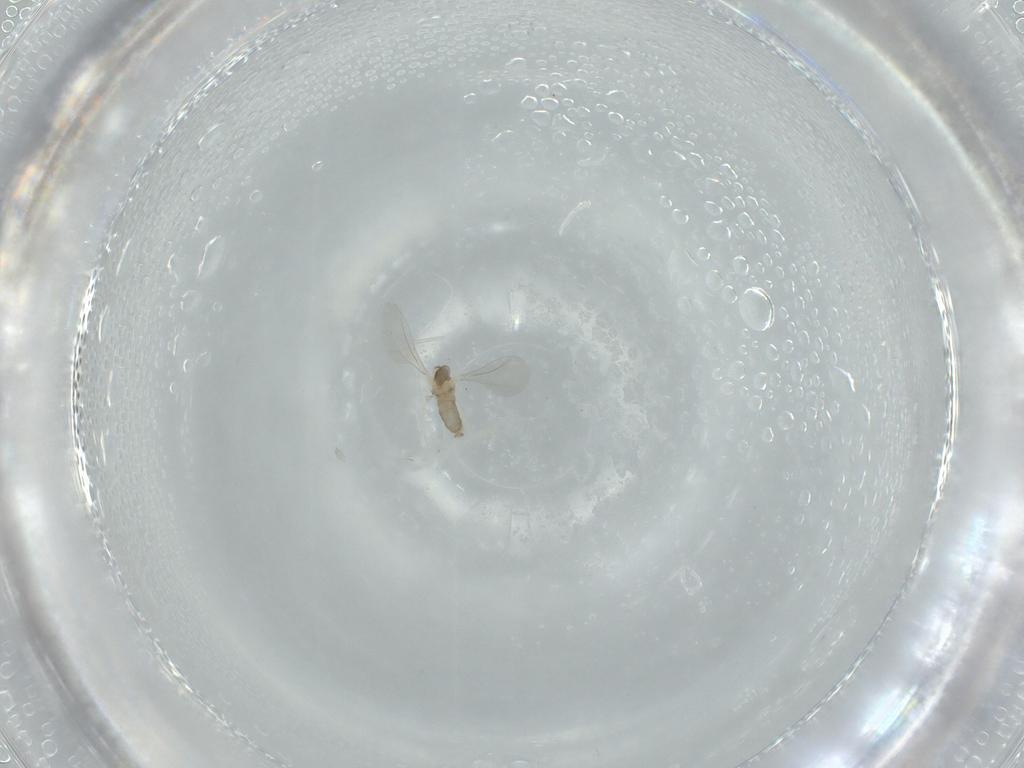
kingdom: Animalia
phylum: Arthropoda
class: Insecta
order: Diptera
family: Cecidomyiidae
